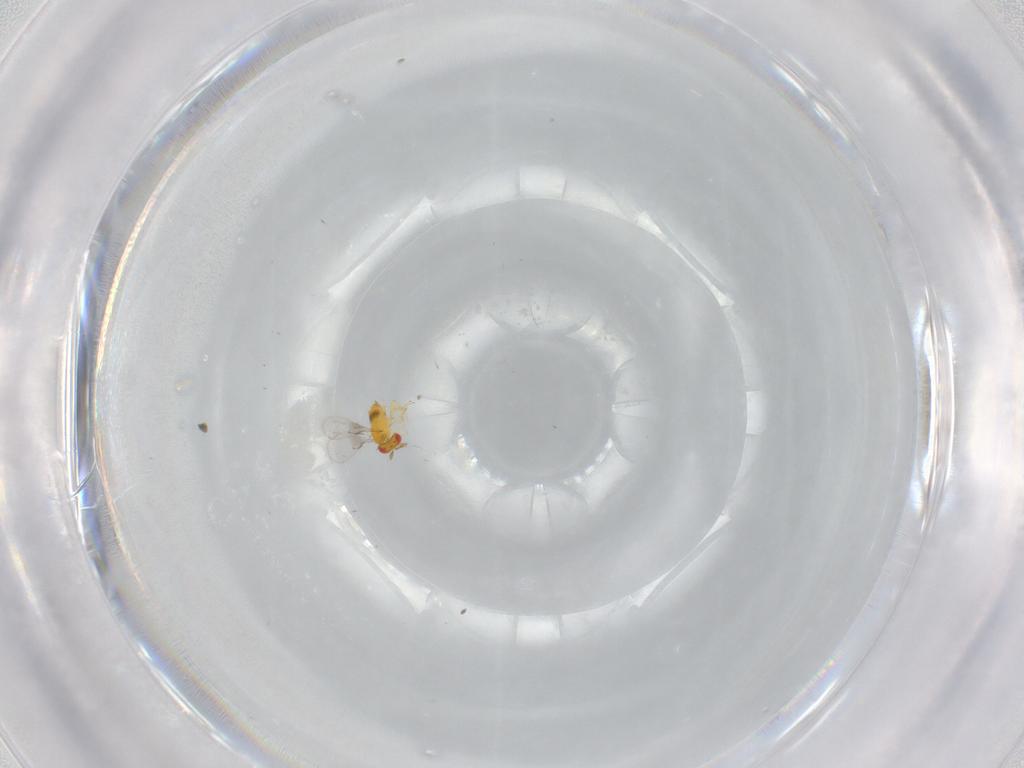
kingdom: Animalia
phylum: Arthropoda
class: Insecta
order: Hymenoptera
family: Trichogrammatidae
